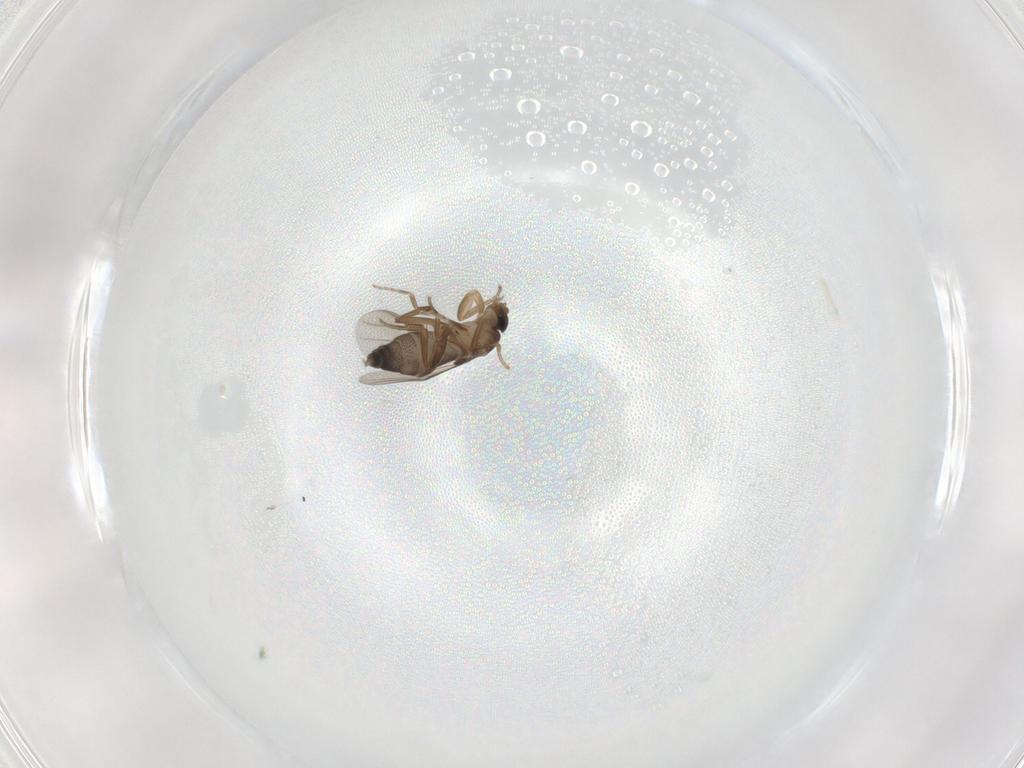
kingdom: Animalia
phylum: Arthropoda
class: Insecta
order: Diptera
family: Phoridae
